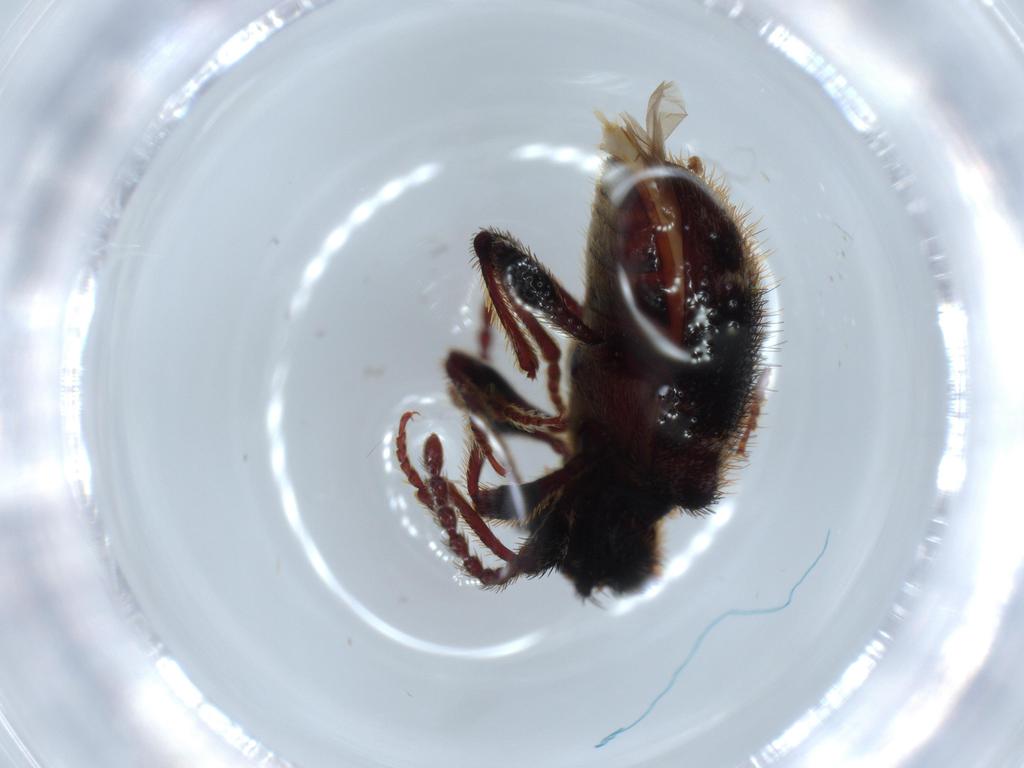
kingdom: Animalia
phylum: Arthropoda
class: Insecta
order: Coleoptera
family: Ptinidae
